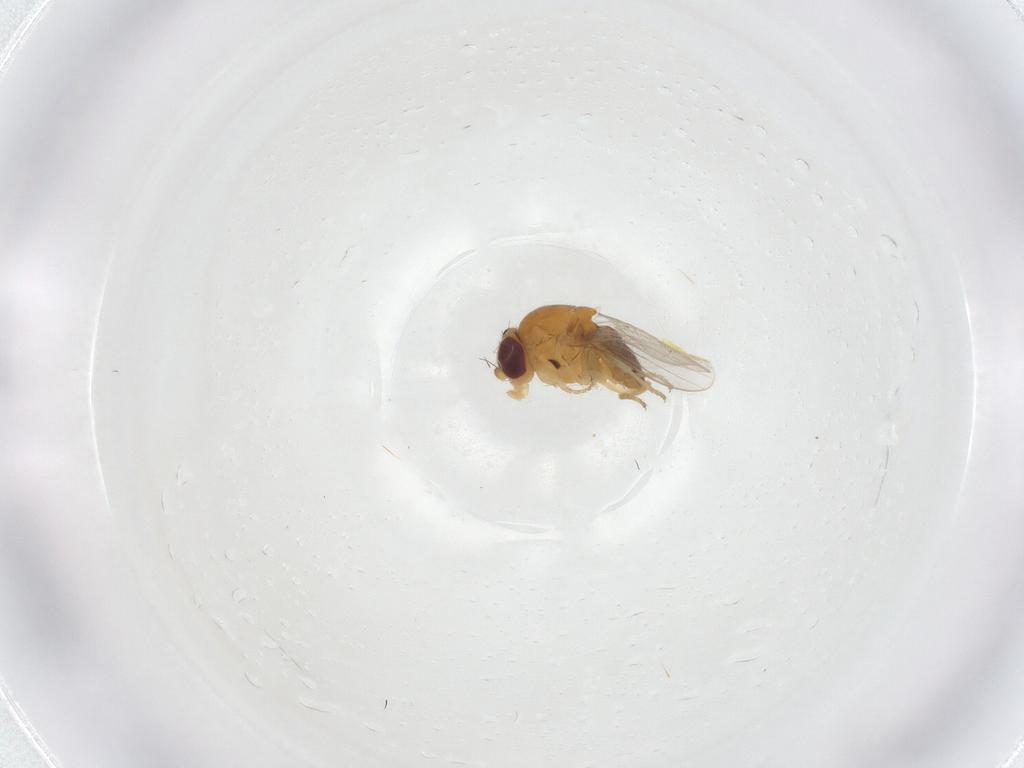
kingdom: Animalia
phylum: Arthropoda
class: Insecta
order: Diptera
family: Chloropidae
